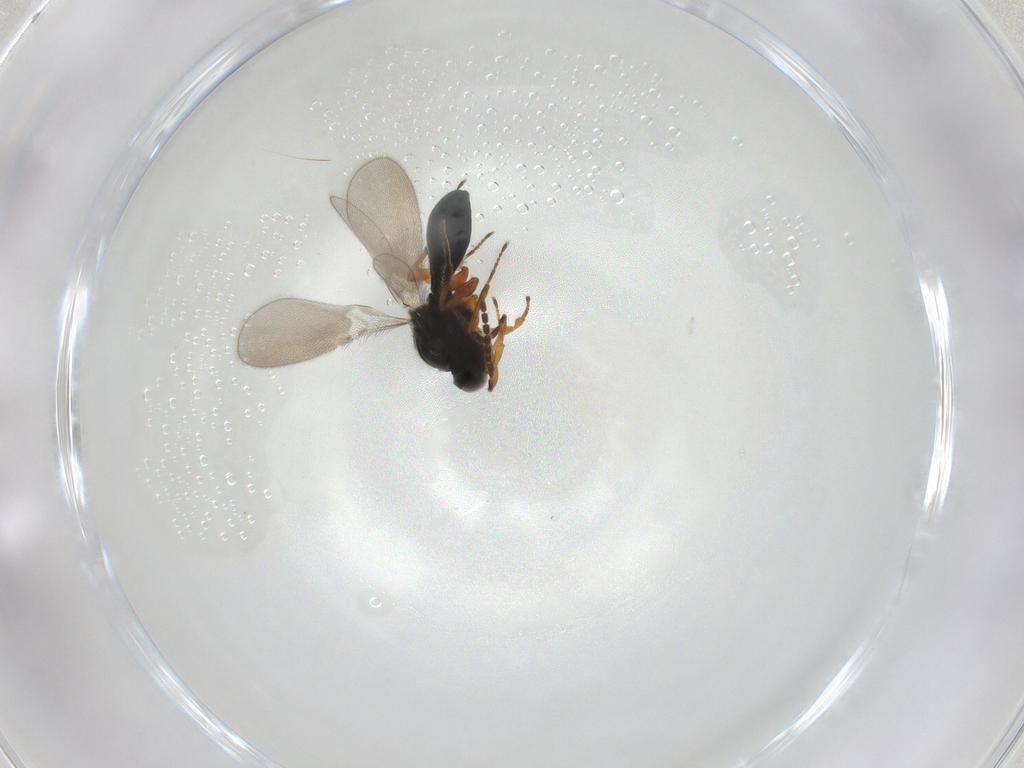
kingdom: Animalia
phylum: Arthropoda
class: Insecta
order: Hymenoptera
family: Platygastridae
